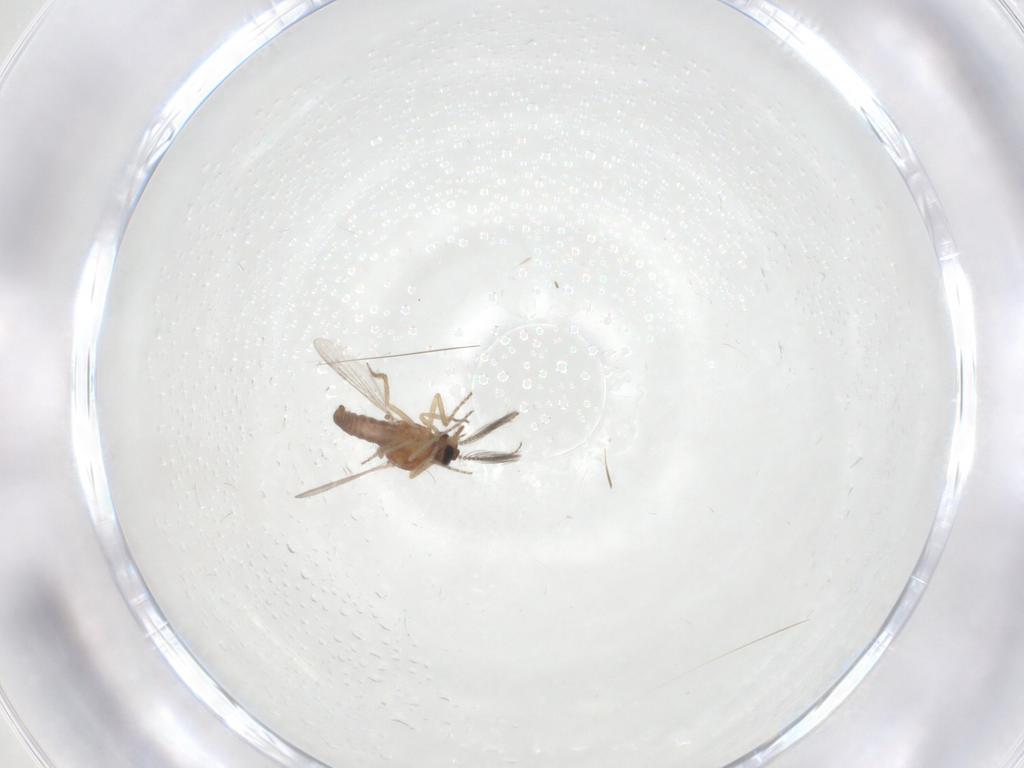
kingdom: Animalia
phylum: Arthropoda
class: Insecta
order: Diptera
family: Ceratopogonidae
